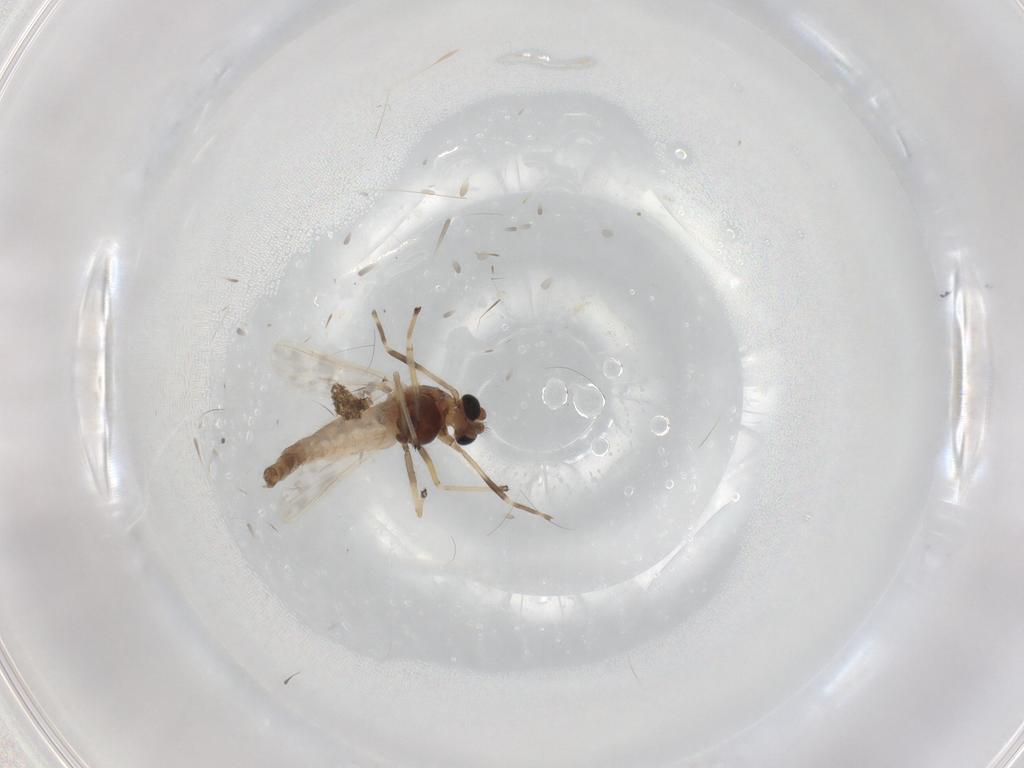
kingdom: Animalia
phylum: Arthropoda
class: Insecta
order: Diptera
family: Chironomidae
